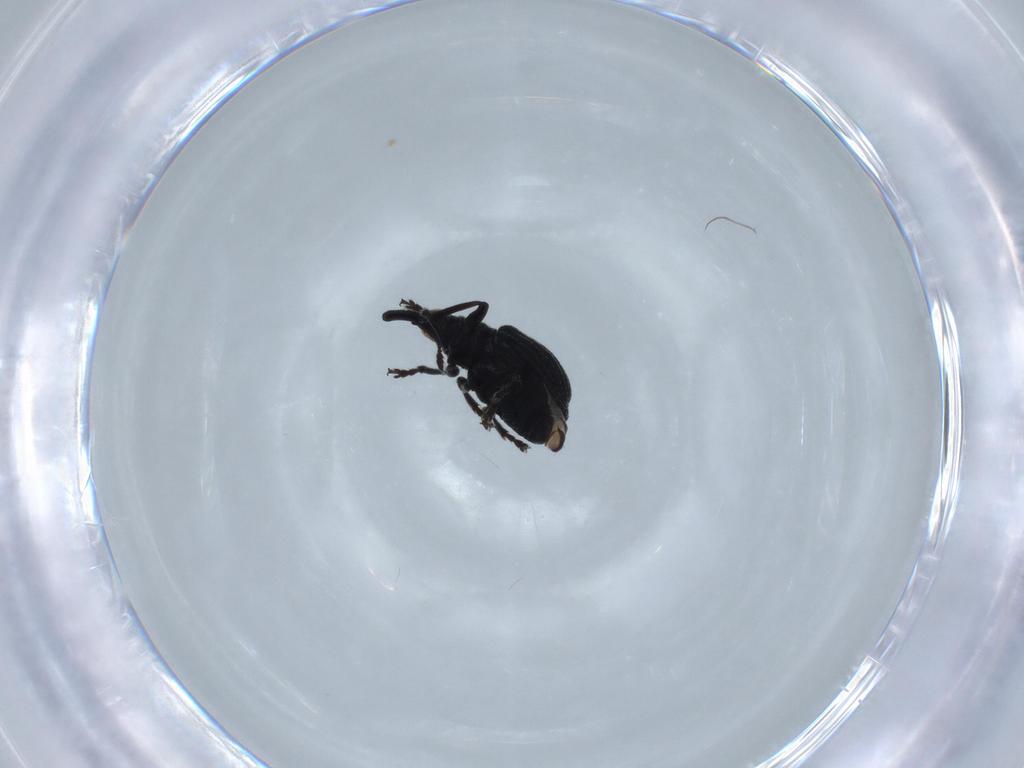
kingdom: Animalia
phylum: Arthropoda
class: Insecta
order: Coleoptera
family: Brentidae
